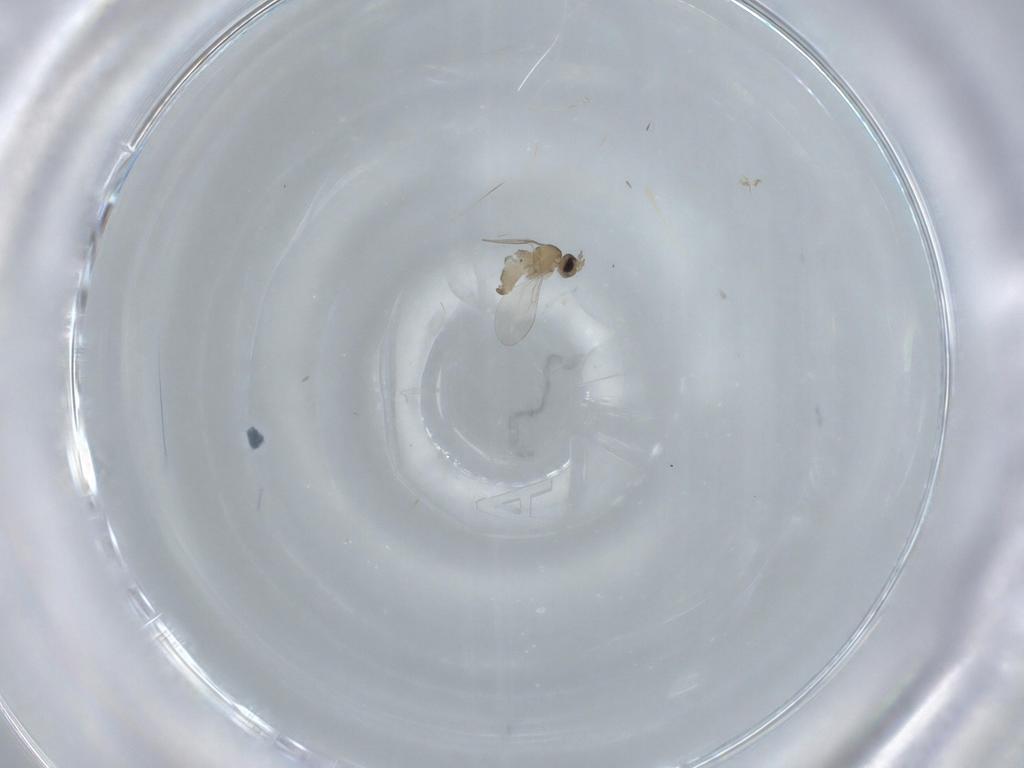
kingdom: Animalia
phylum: Arthropoda
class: Insecta
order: Diptera
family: Cecidomyiidae
